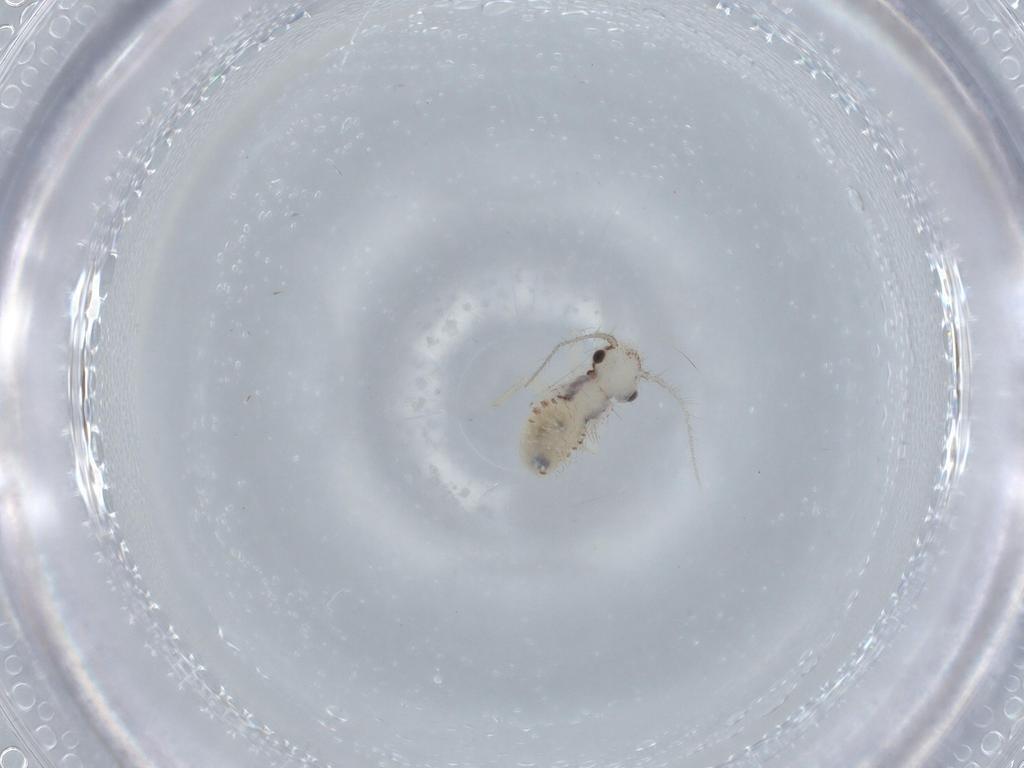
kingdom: Animalia
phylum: Arthropoda
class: Insecta
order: Psocodea
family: Pseudocaeciliidae
